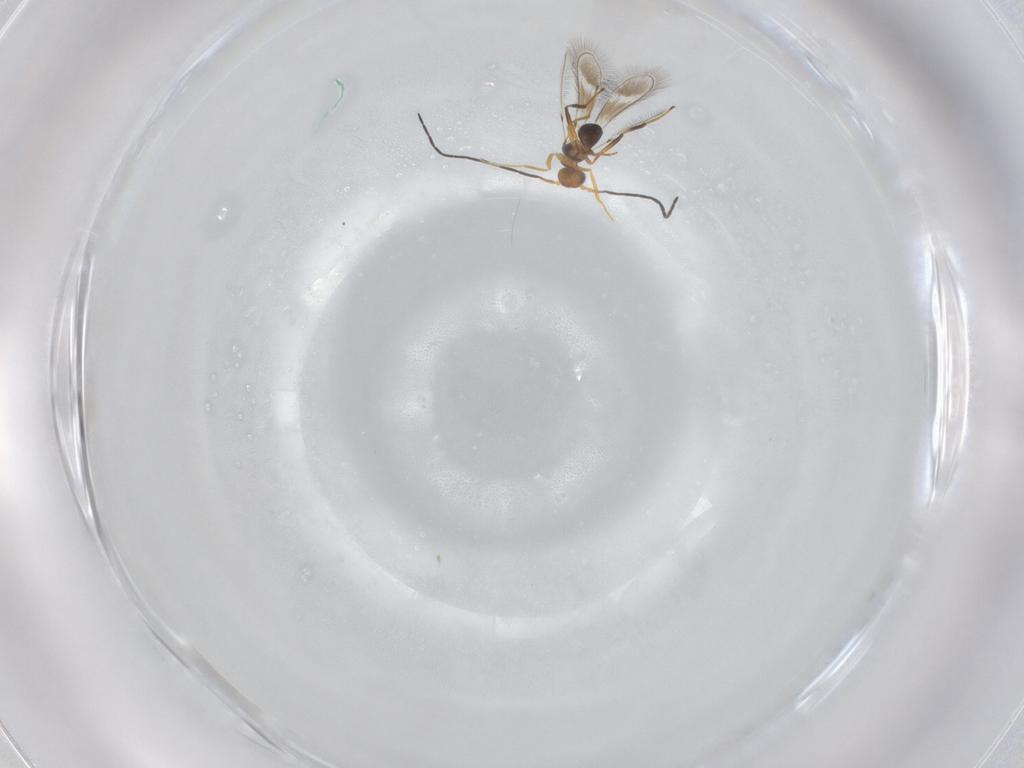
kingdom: Animalia
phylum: Arthropoda
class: Insecta
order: Hymenoptera
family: Mymaridae
